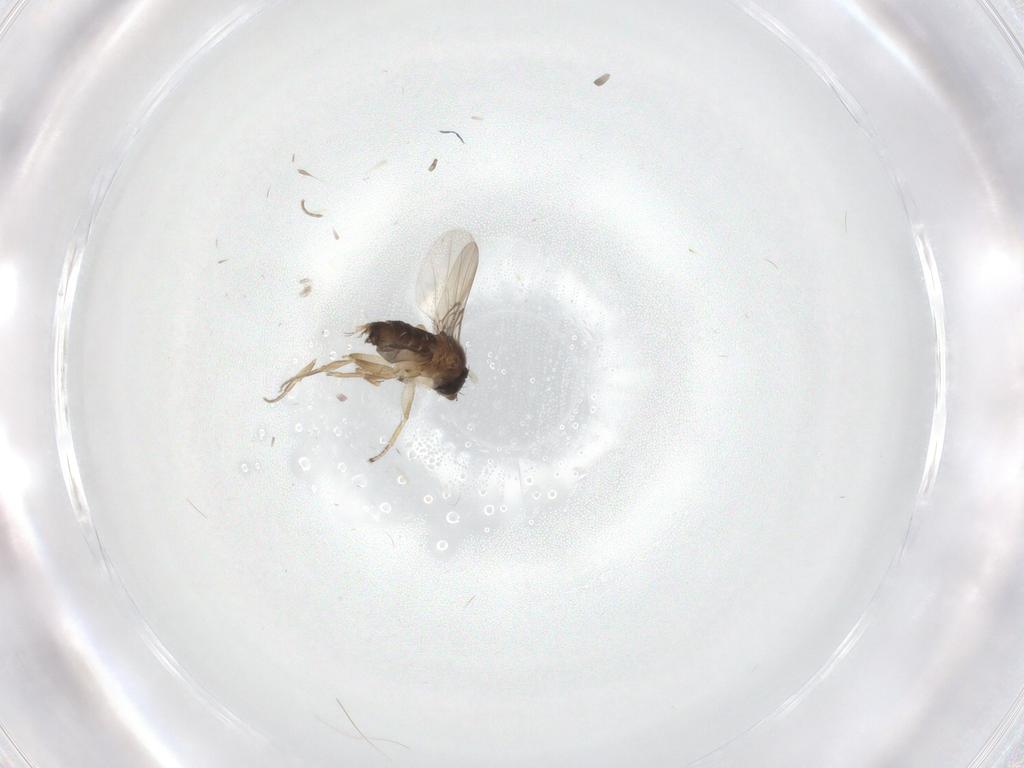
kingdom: Animalia
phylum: Arthropoda
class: Insecta
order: Diptera
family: Phoridae
